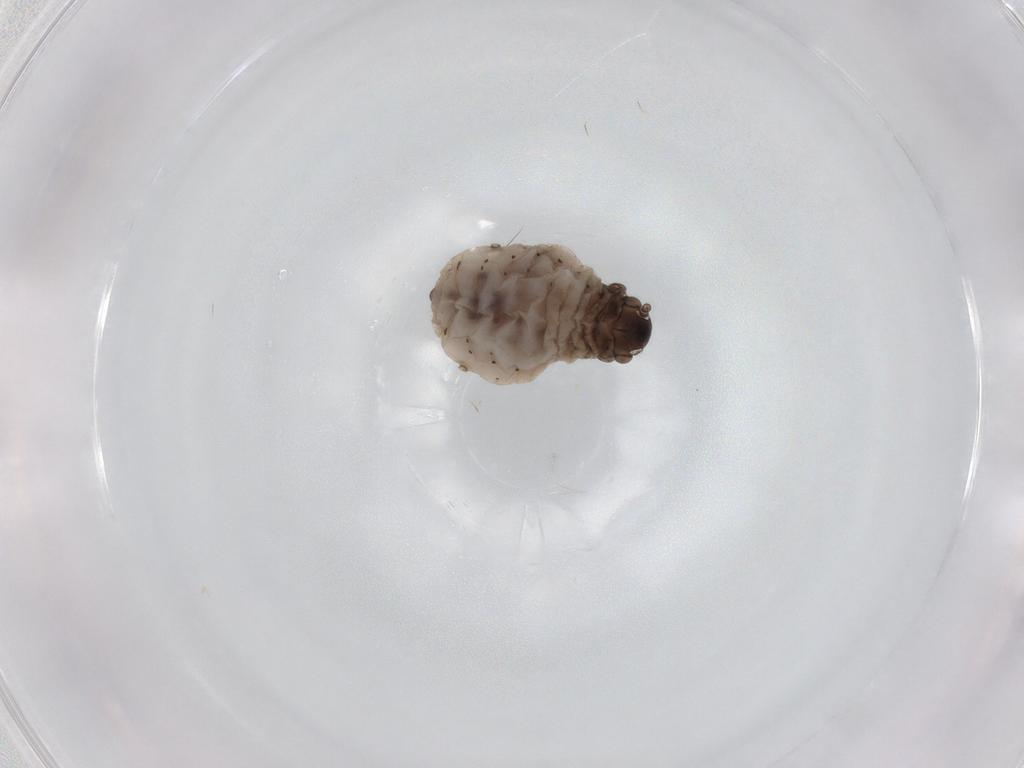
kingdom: Animalia
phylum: Arthropoda
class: Insecta
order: Hemiptera
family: Aphididae
